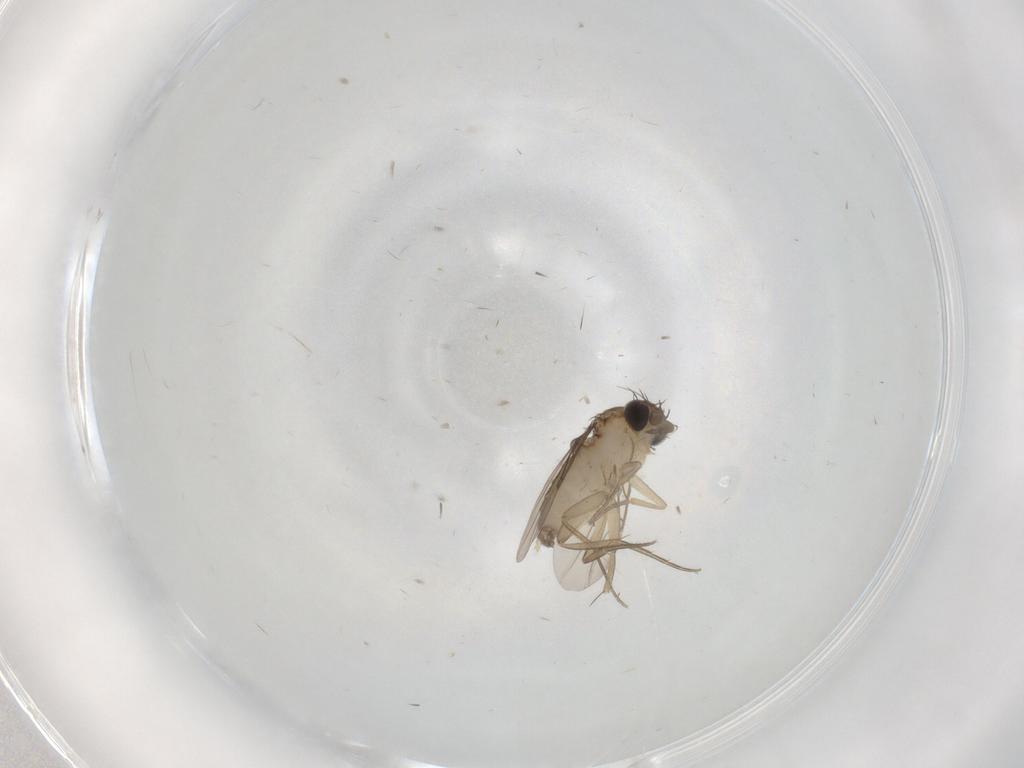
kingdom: Animalia
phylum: Arthropoda
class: Insecta
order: Diptera
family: Phoridae
